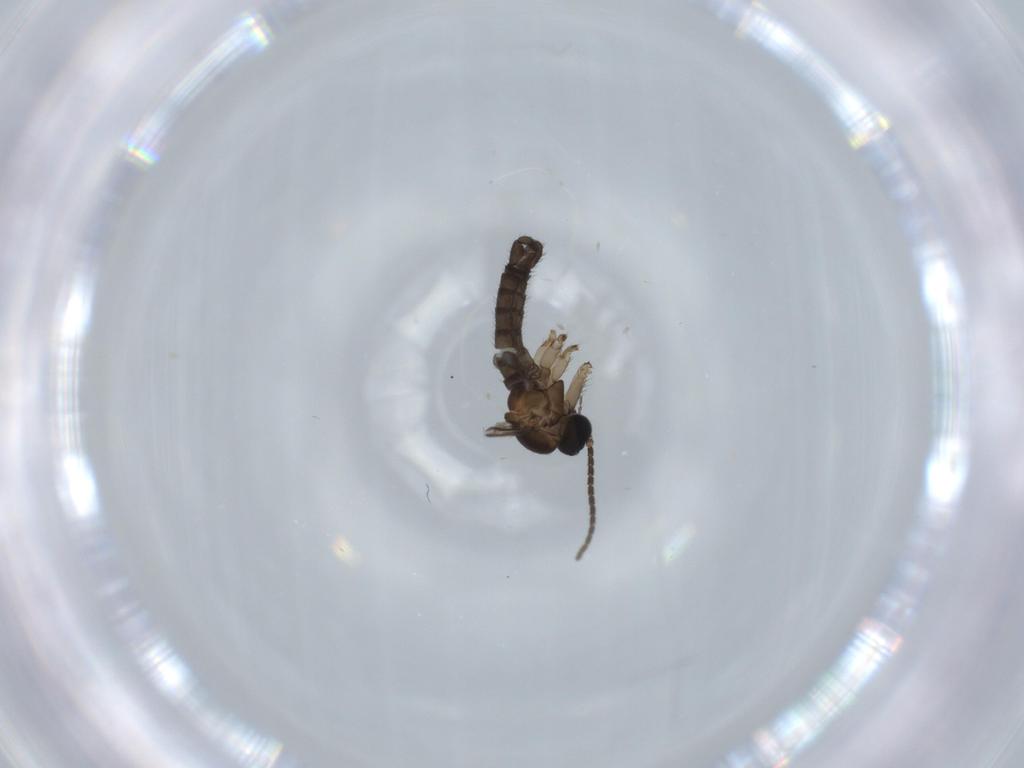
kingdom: Animalia
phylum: Arthropoda
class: Insecta
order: Diptera
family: Sciaridae
